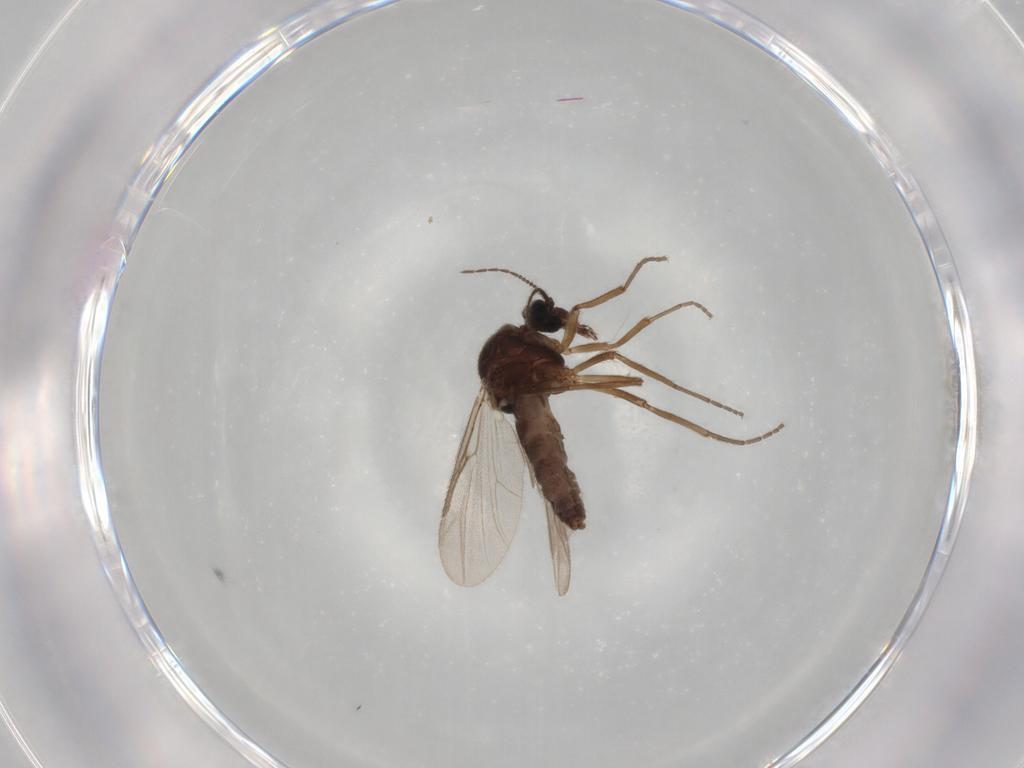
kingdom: Animalia
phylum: Arthropoda
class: Insecta
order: Diptera
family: Ceratopogonidae
